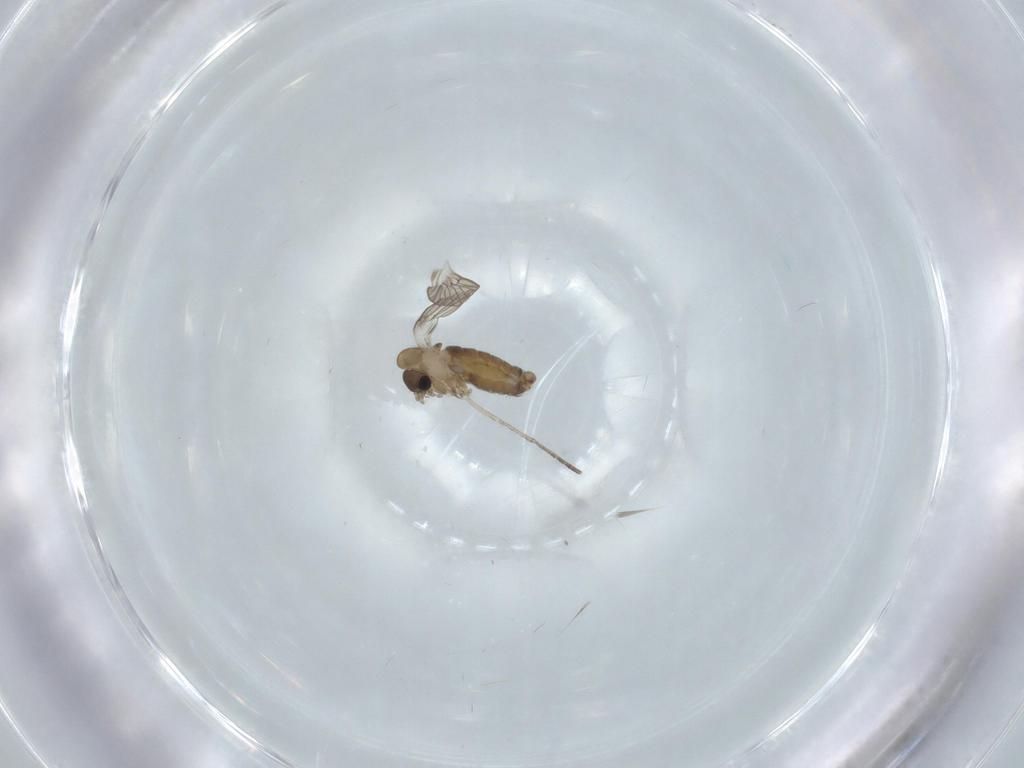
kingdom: Animalia
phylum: Arthropoda
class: Insecta
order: Diptera
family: Psychodidae
